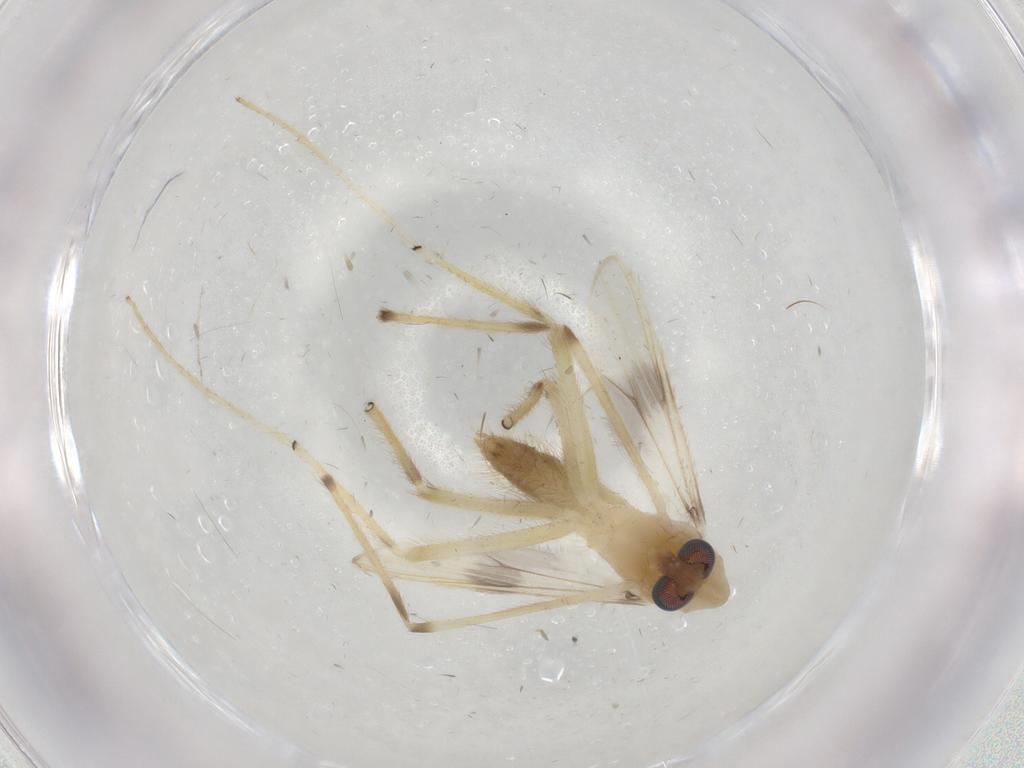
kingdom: Animalia
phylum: Arthropoda
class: Insecta
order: Diptera
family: Chironomidae
